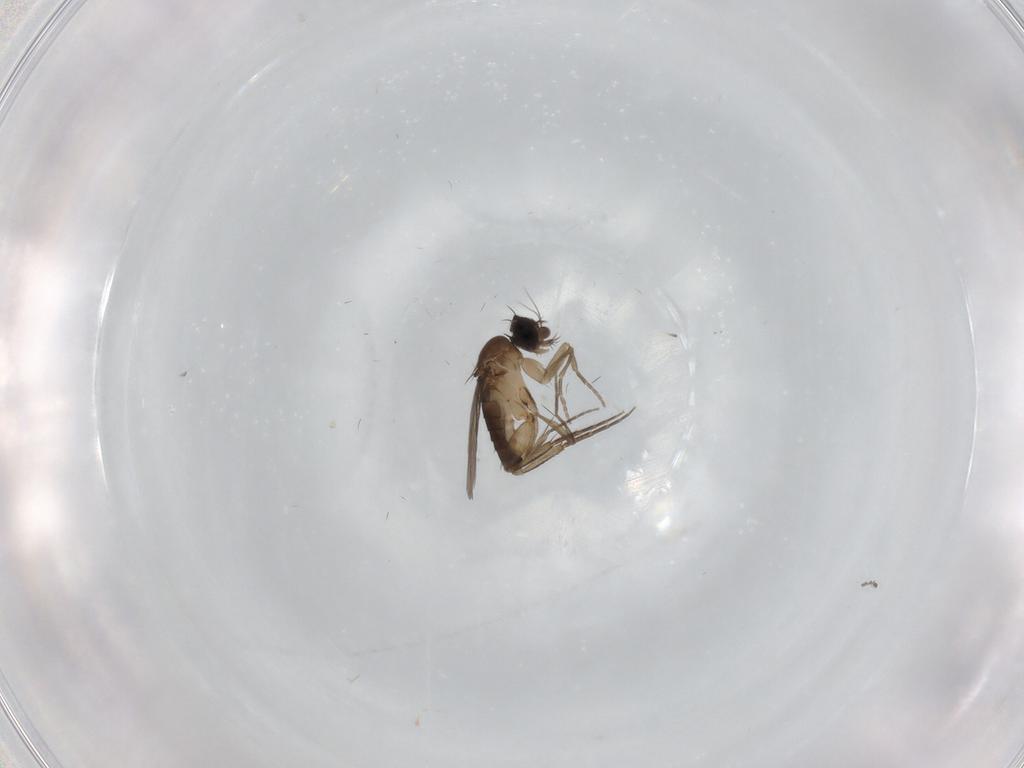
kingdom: Animalia
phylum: Arthropoda
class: Insecta
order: Diptera
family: Phoridae
